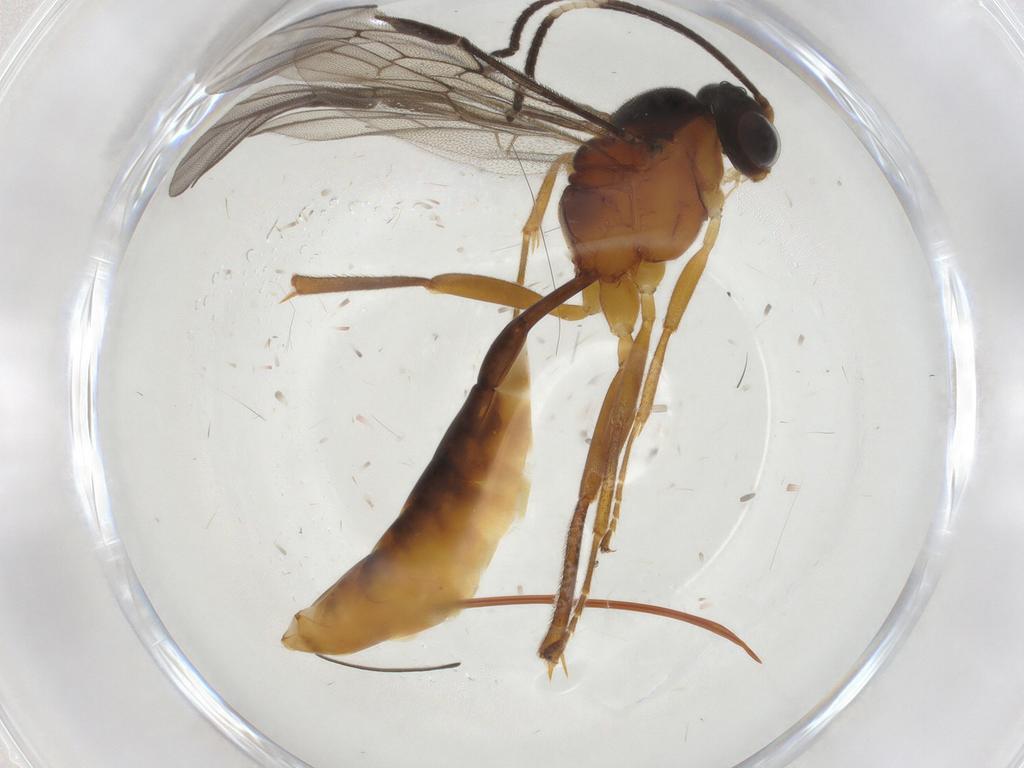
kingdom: Animalia
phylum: Arthropoda
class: Insecta
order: Hymenoptera
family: Ichneumonidae
